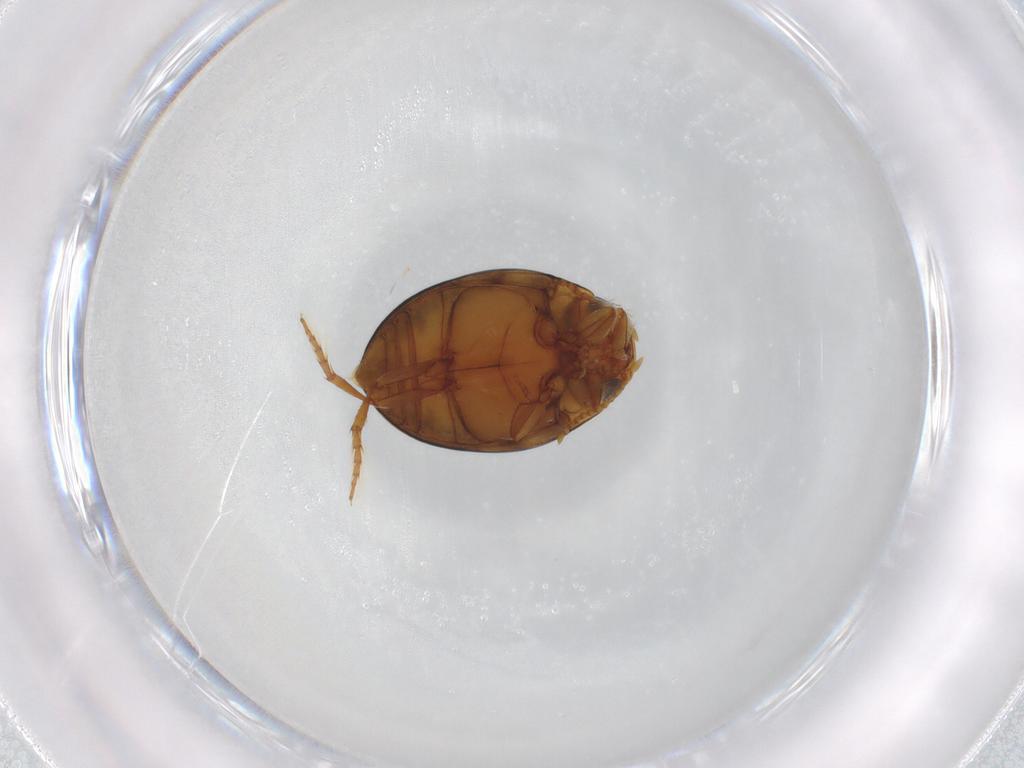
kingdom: Animalia
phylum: Arthropoda
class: Insecta
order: Coleoptera
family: Dytiscidae
